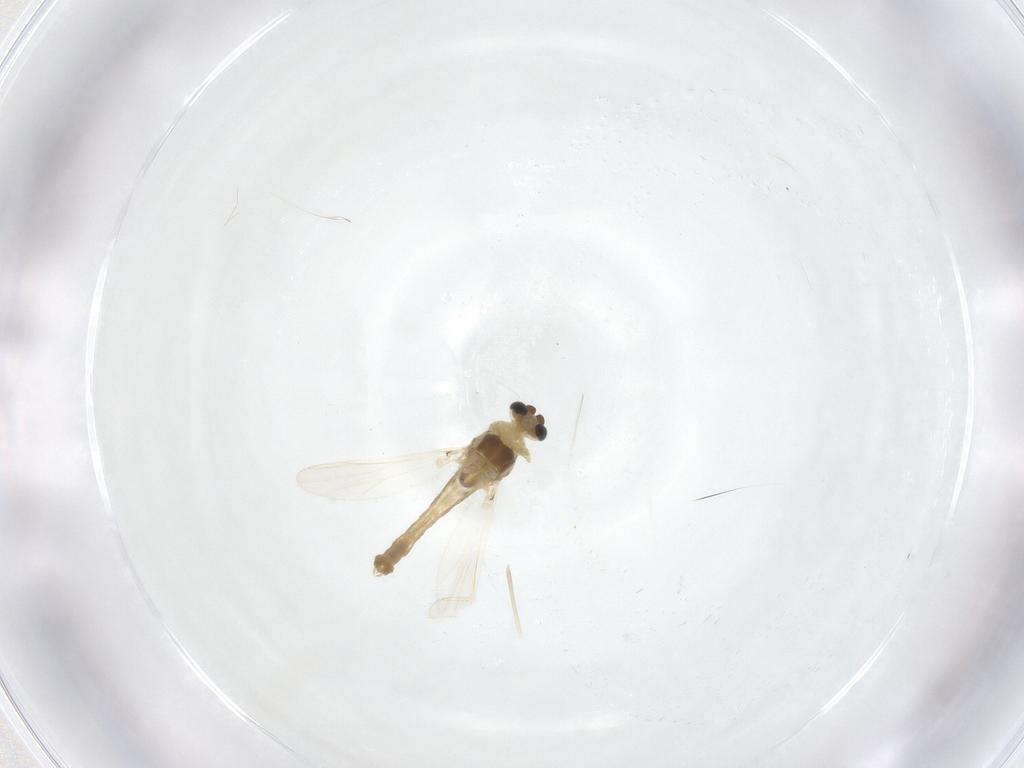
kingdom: Animalia
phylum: Arthropoda
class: Insecta
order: Diptera
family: Chironomidae
